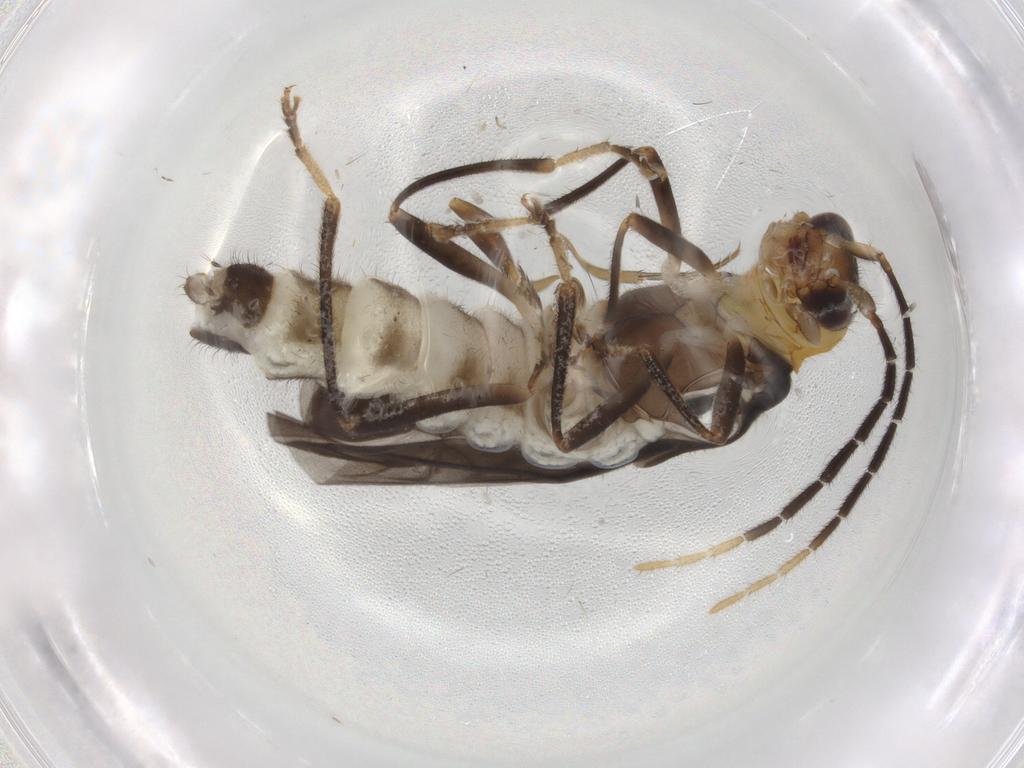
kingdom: Animalia
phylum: Arthropoda
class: Insecta
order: Coleoptera
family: Cantharidae
